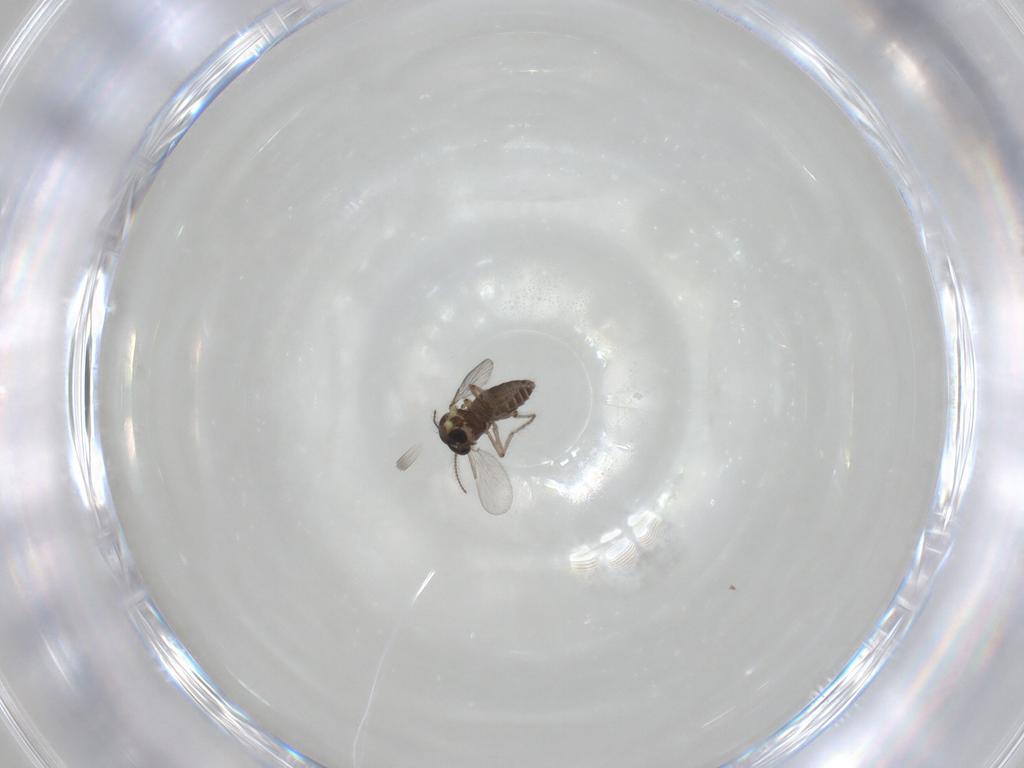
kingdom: Animalia
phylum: Arthropoda
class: Insecta
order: Diptera
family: Ceratopogonidae
